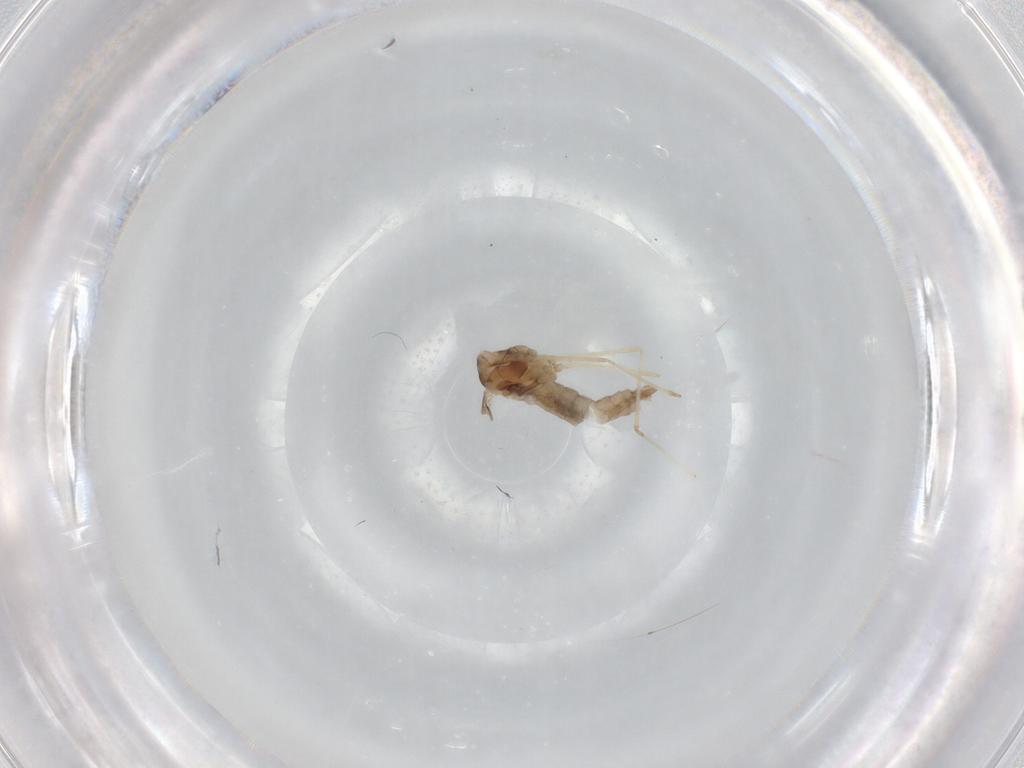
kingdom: Animalia
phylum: Arthropoda
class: Insecta
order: Diptera
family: Cecidomyiidae
